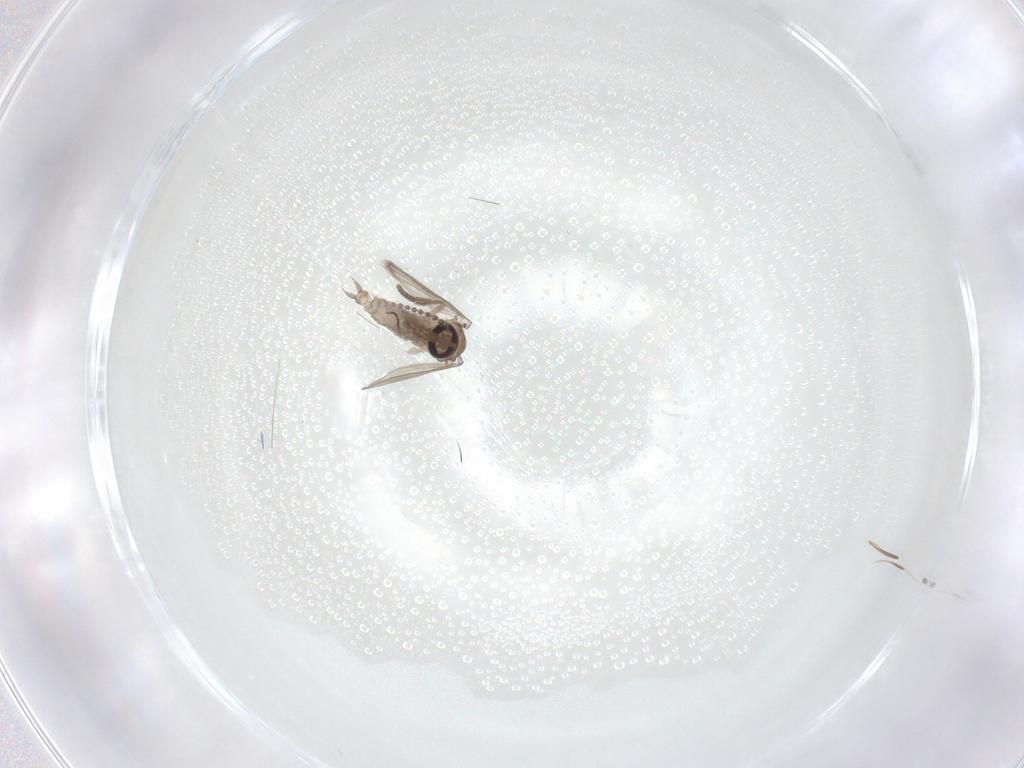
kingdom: Animalia
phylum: Arthropoda
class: Insecta
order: Diptera
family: Psychodidae
